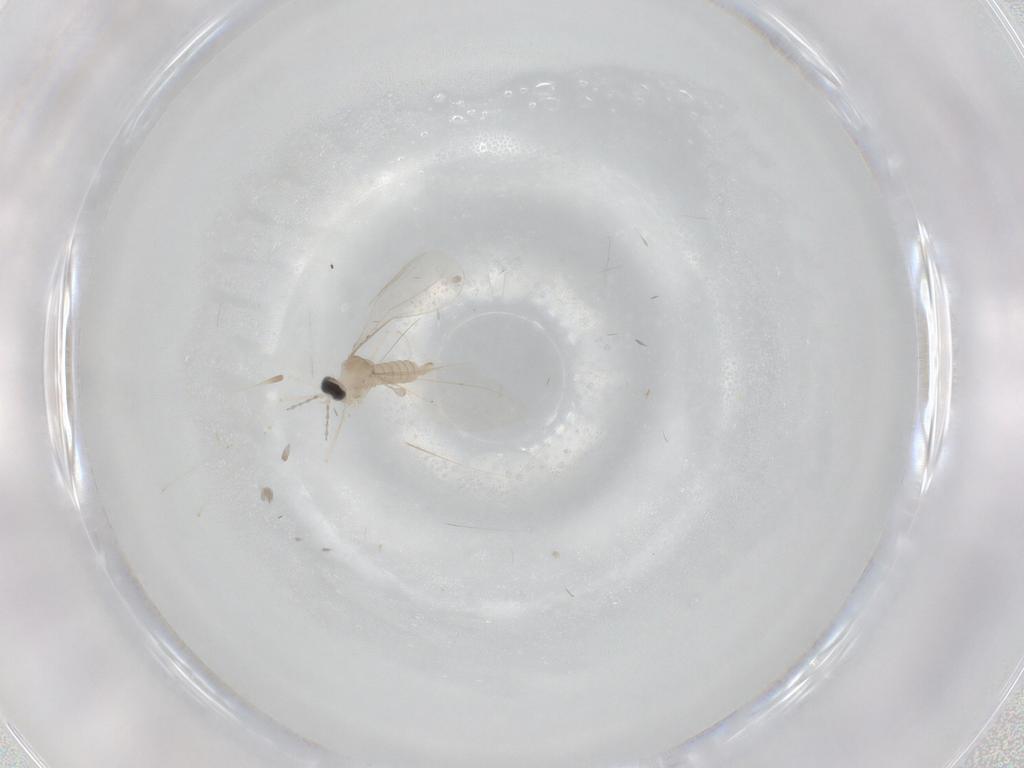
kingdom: Animalia
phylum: Arthropoda
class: Insecta
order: Diptera
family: Cecidomyiidae
